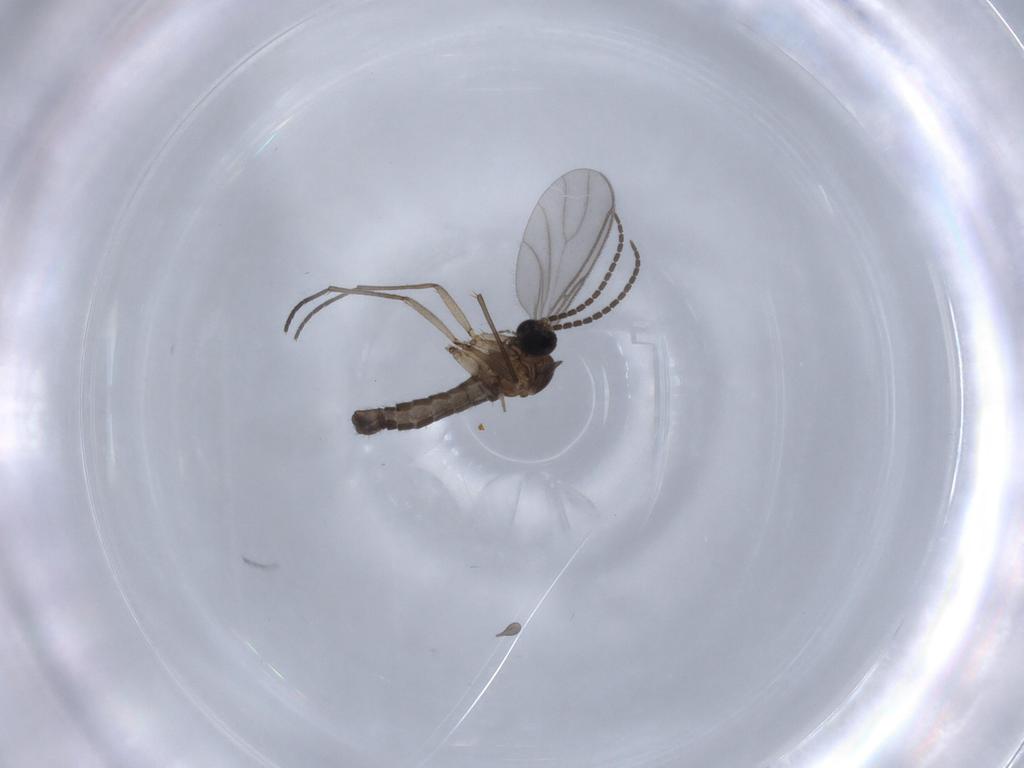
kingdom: Animalia
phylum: Arthropoda
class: Insecta
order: Diptera
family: Sciaridae
